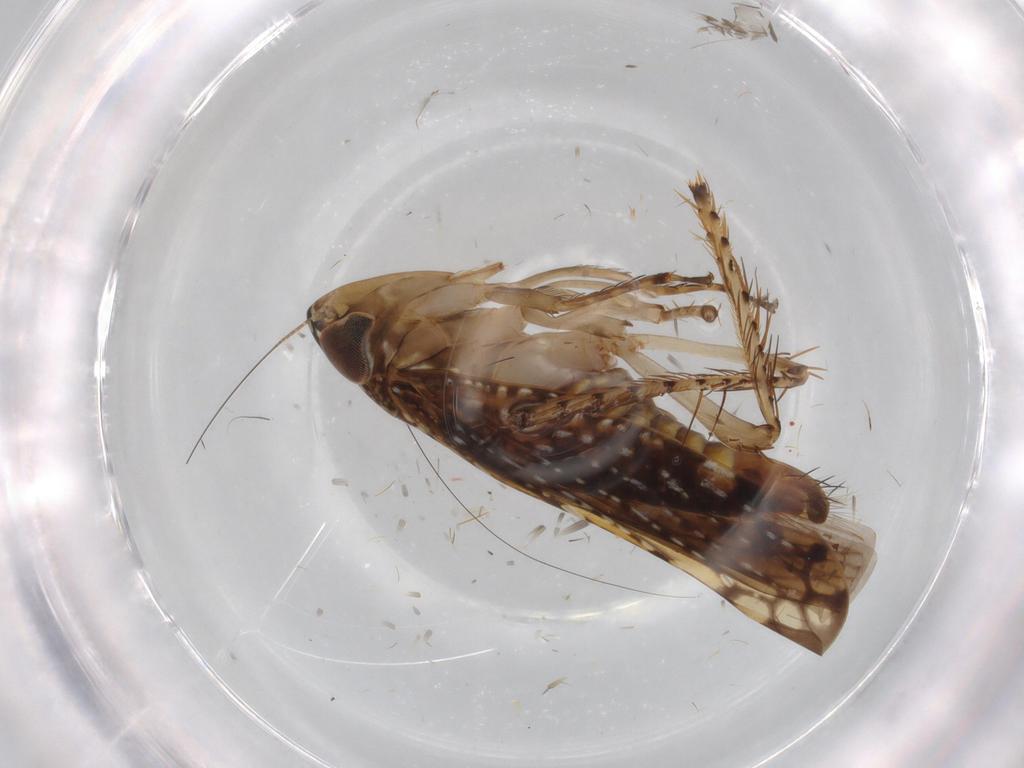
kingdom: Animalia
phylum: Arthropoda
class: Insecta
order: Hemiptera
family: Cicadellidae
